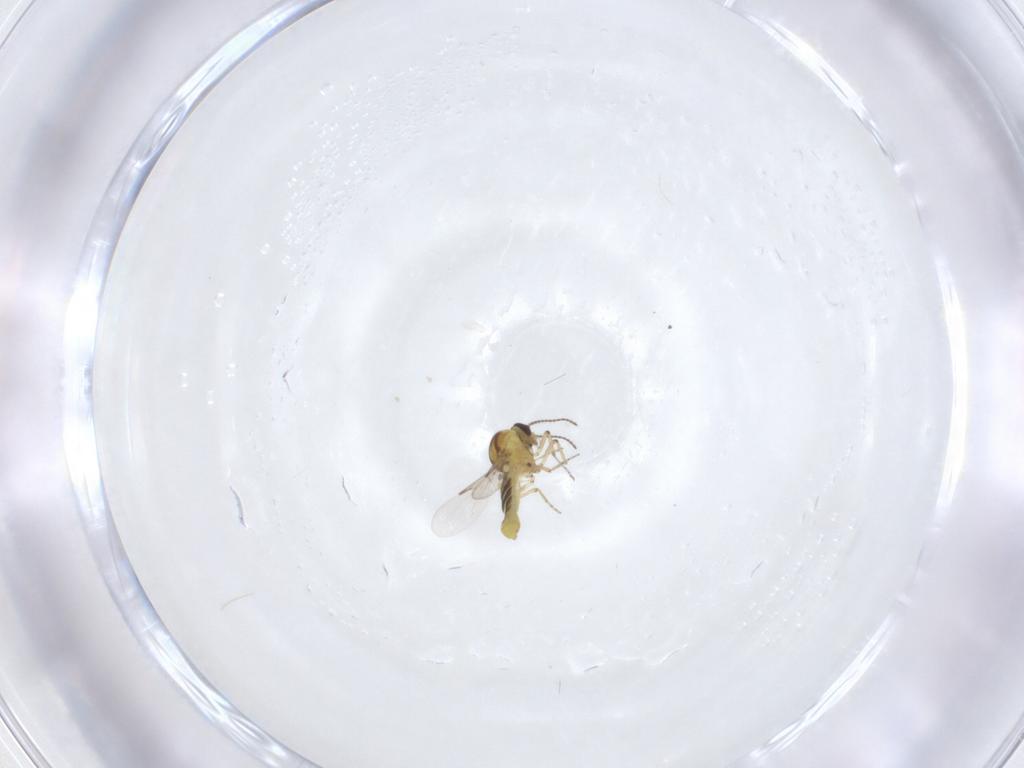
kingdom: Animalia
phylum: Arthropoda
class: Insecta
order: Diptera
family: Ceratopogonidae
